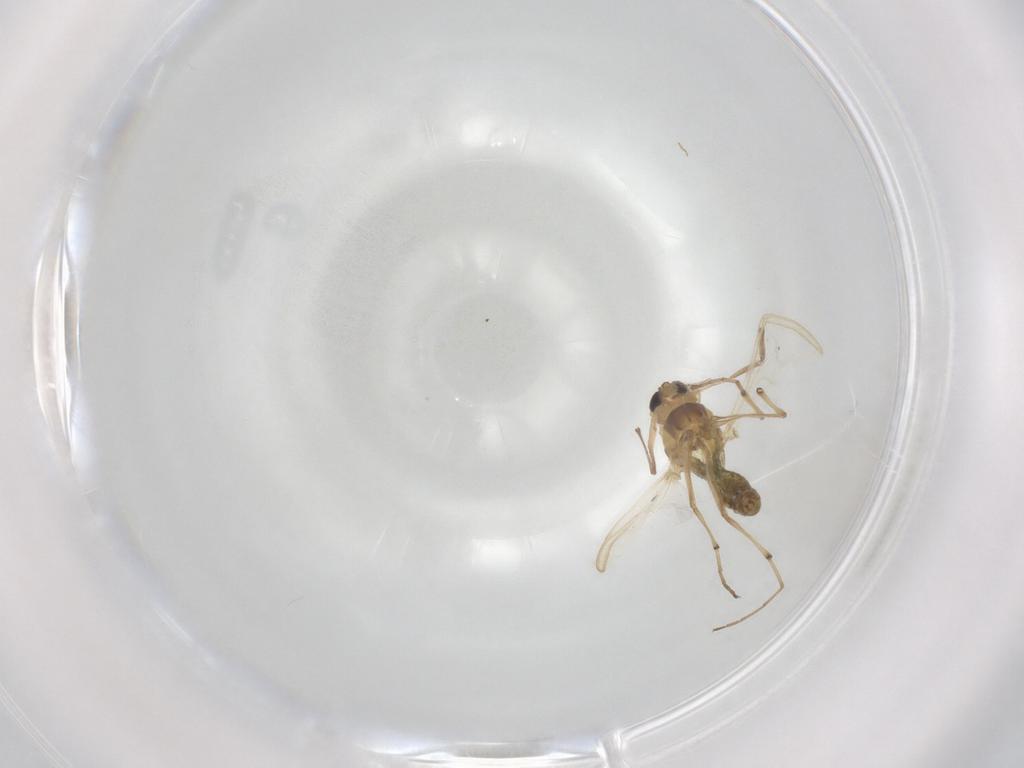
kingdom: Animalia
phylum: Arthropoda
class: Insecta
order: Diptera
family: Chironomidae
